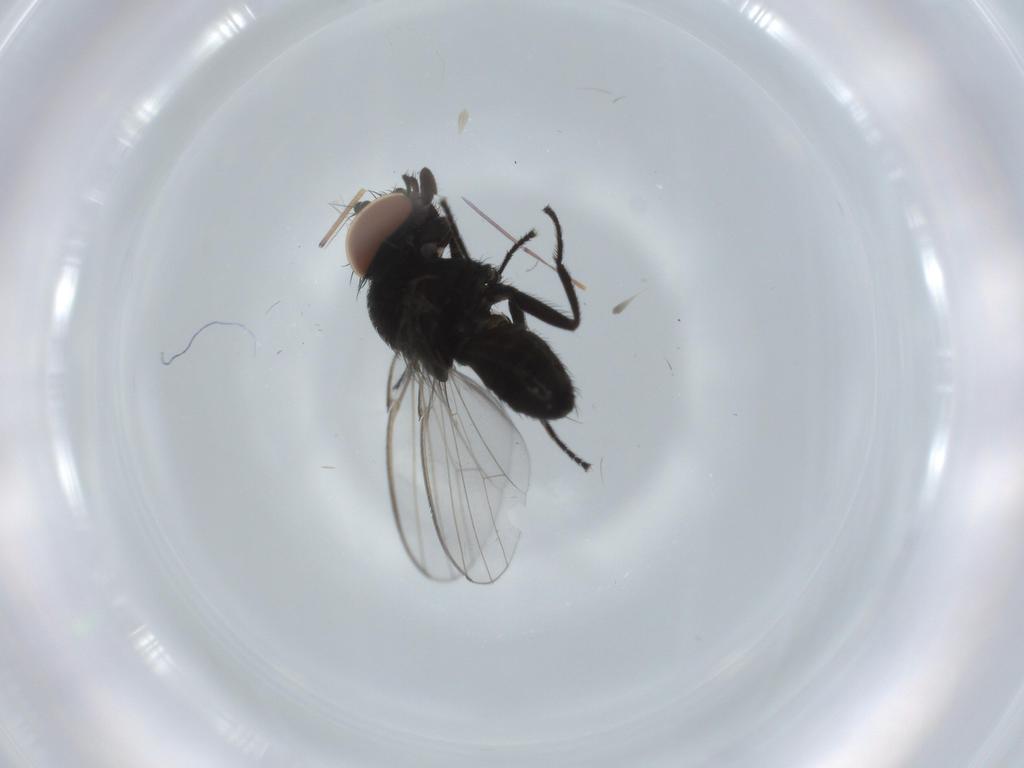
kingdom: Animalia
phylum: Arthropoda
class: Insecta
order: Diptera
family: Milichiidae
